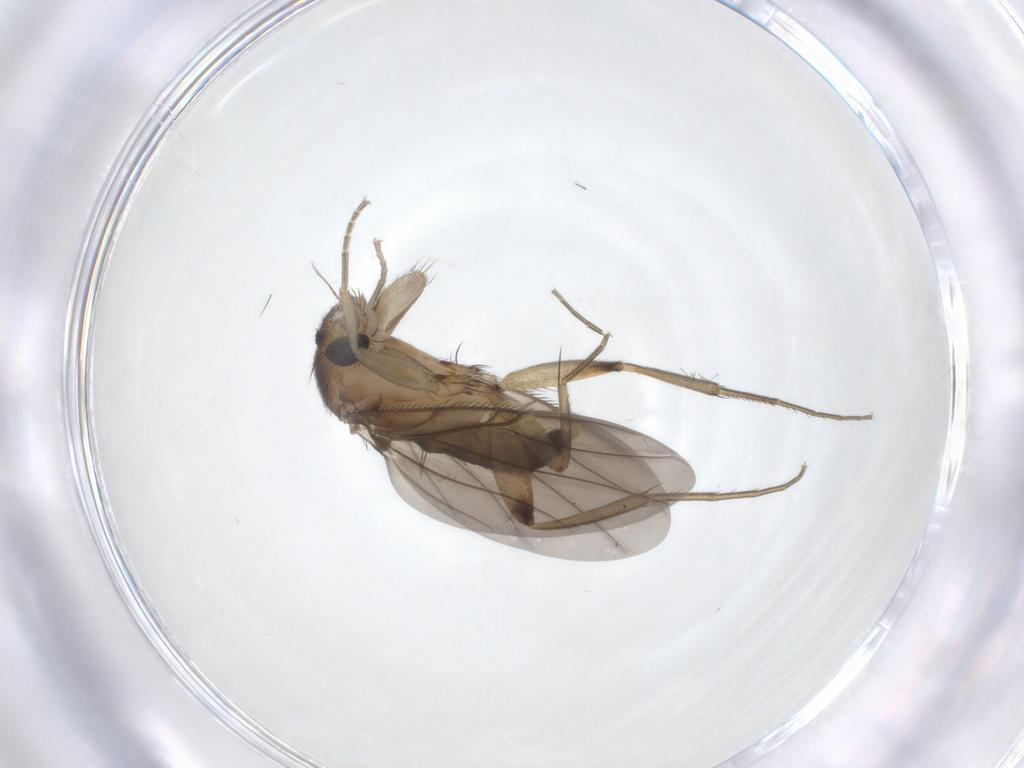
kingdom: Animalia
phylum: Arthropoda
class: Insecta
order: Diptera
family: Phoridae
